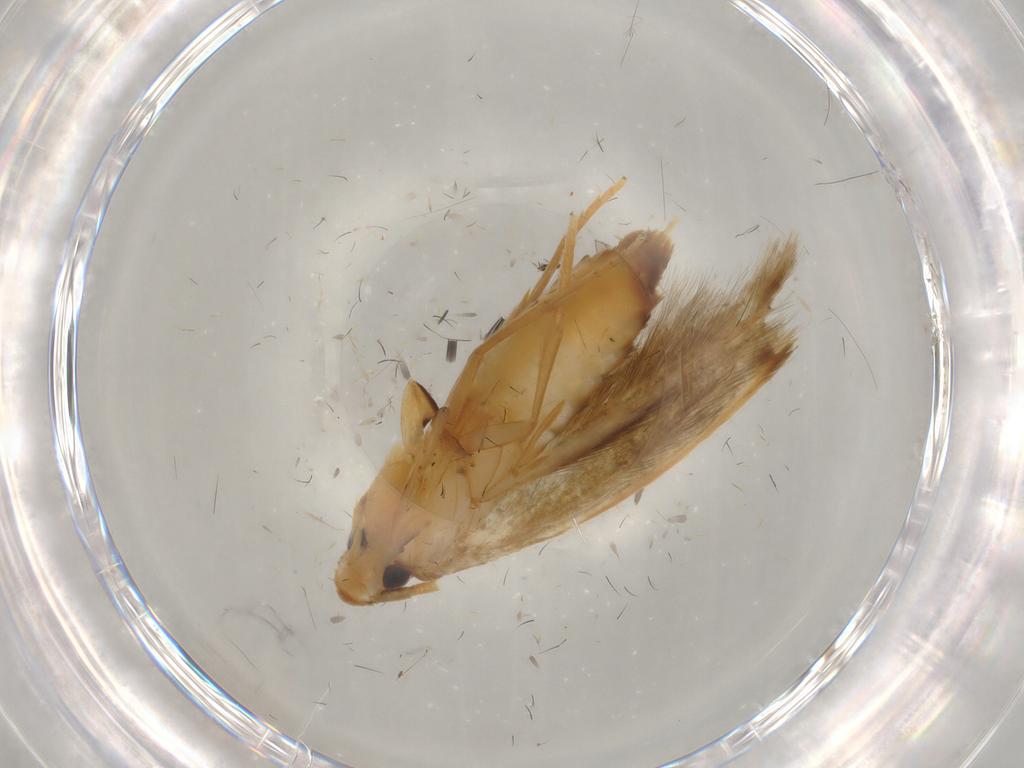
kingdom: Animalia
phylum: Arthropoda
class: Insecta
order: Lepidoptera
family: Tineidae
